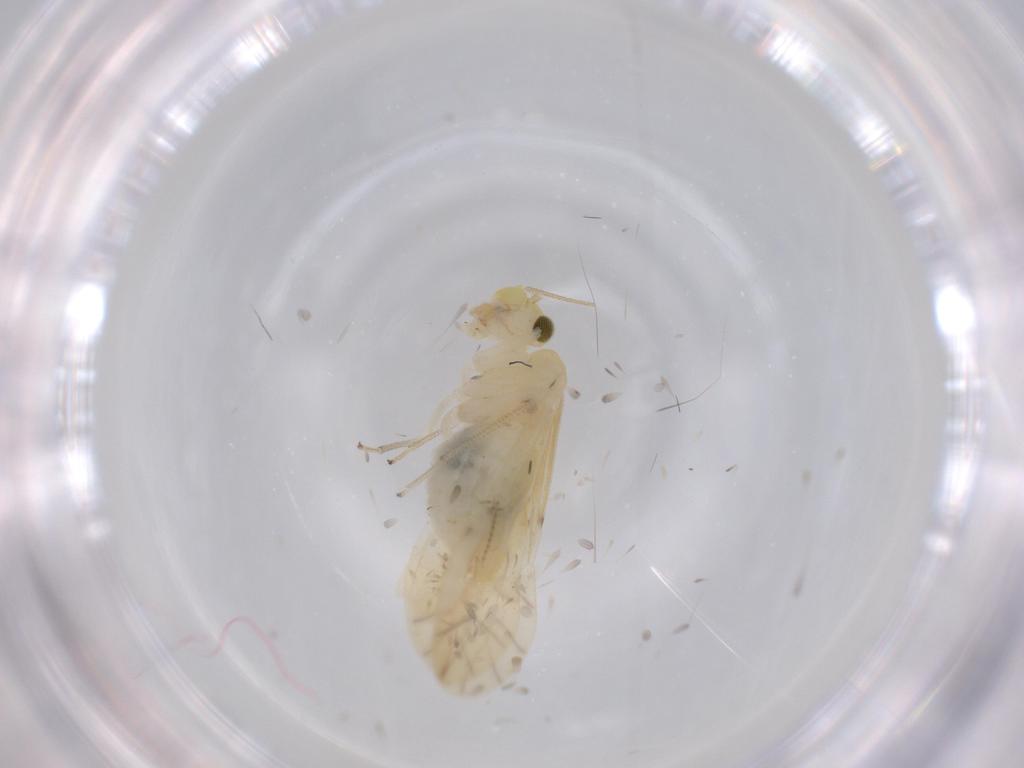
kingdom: Animalia
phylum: Arthropoda
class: Insecta
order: Psocodea
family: Caeciliusidae
